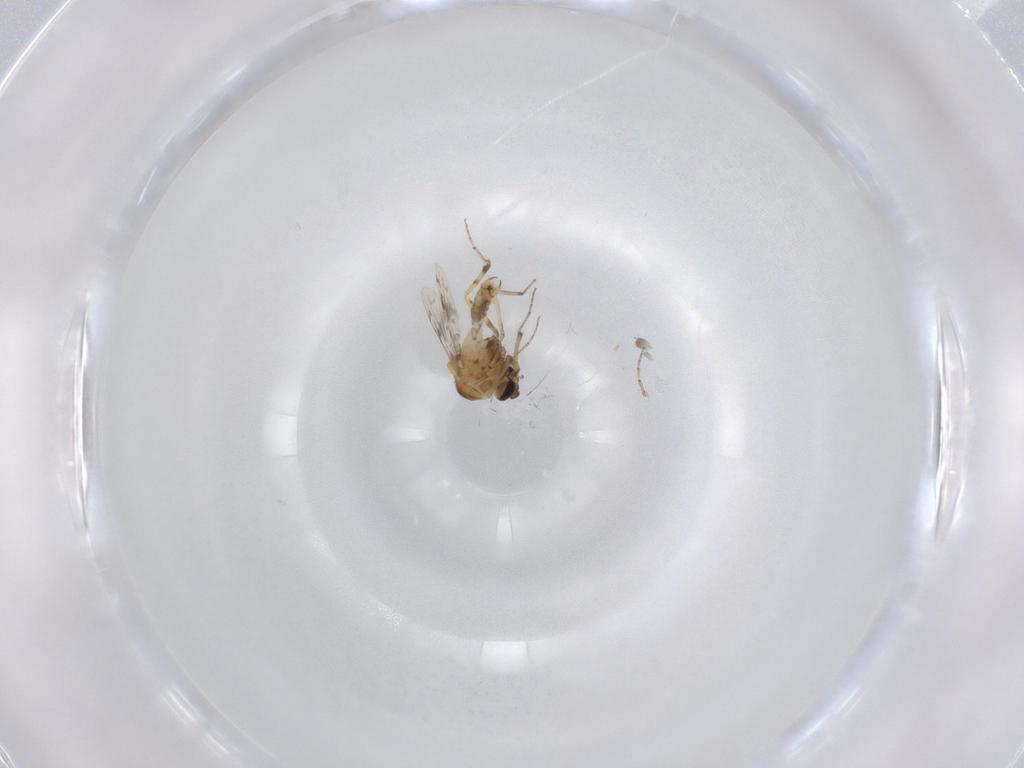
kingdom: Animalia
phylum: Arthropoda
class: Insecta
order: Diptera
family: Ceratopogonidae
